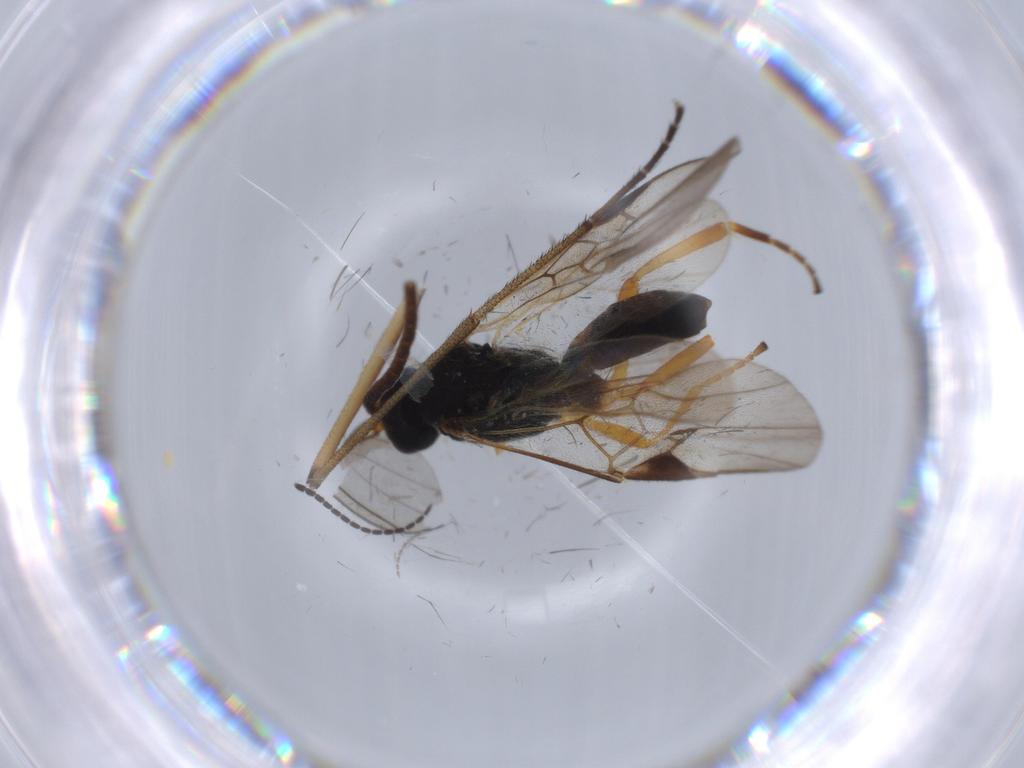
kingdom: Animalia
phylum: Arthropoda
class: Insecta
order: Hymenoptera
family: Braconidae
